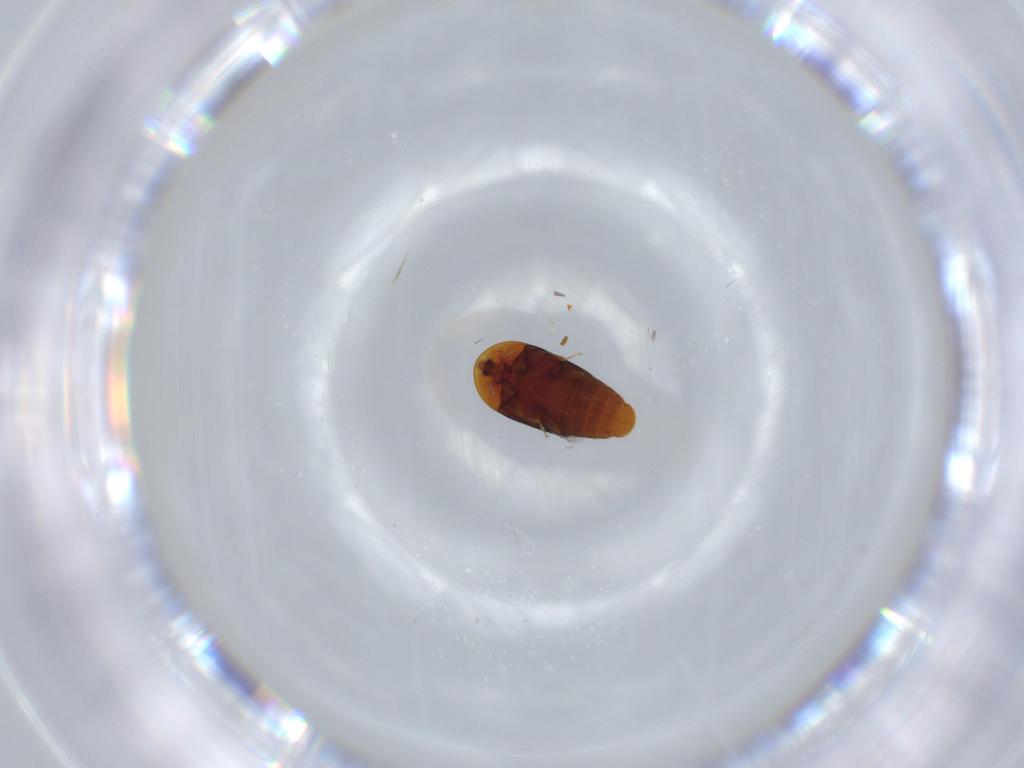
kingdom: Animalia
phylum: Arthropoda
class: Insecta
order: Coleoptera
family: Corylophidae
